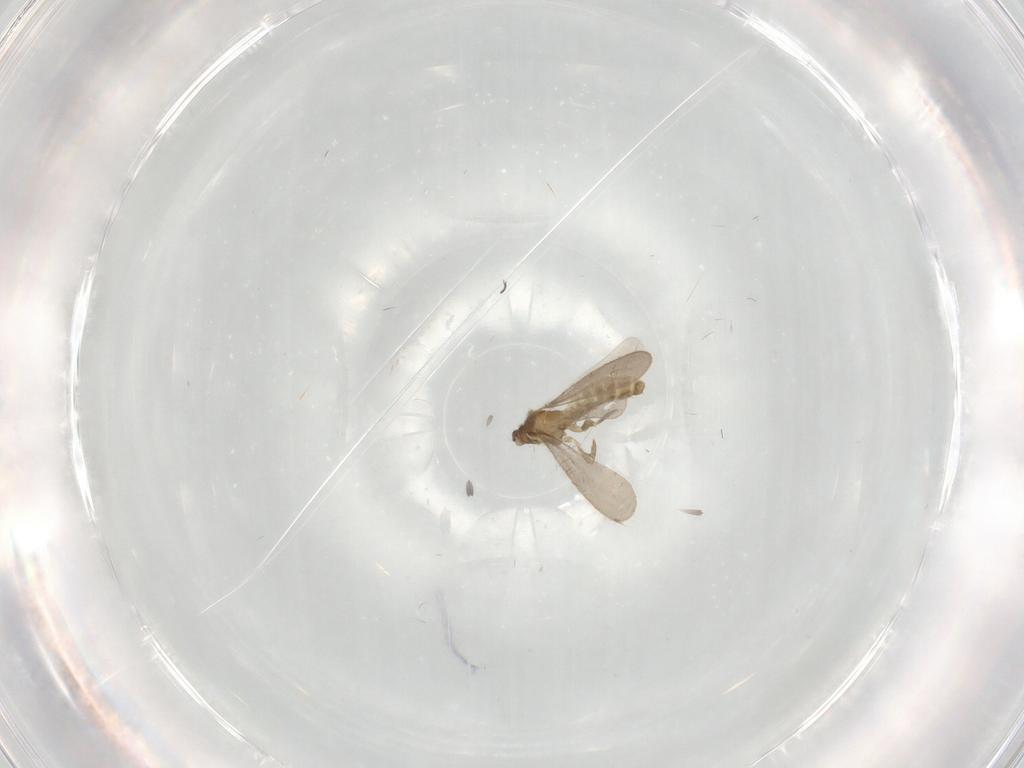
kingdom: Animalia
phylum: Arthropoda
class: Insecta
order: Hemiptera
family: Enicocephalidae
